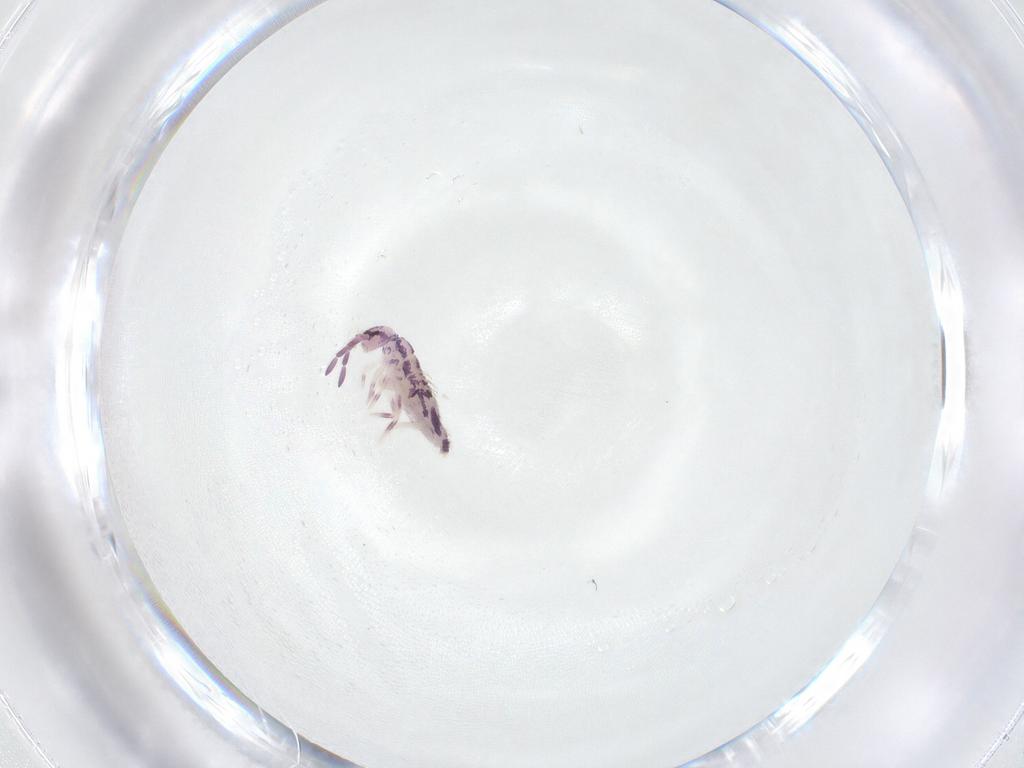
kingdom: Animalia
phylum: Arthropoda
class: Collembola
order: Entomobryomorpha
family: Entomobryidae
